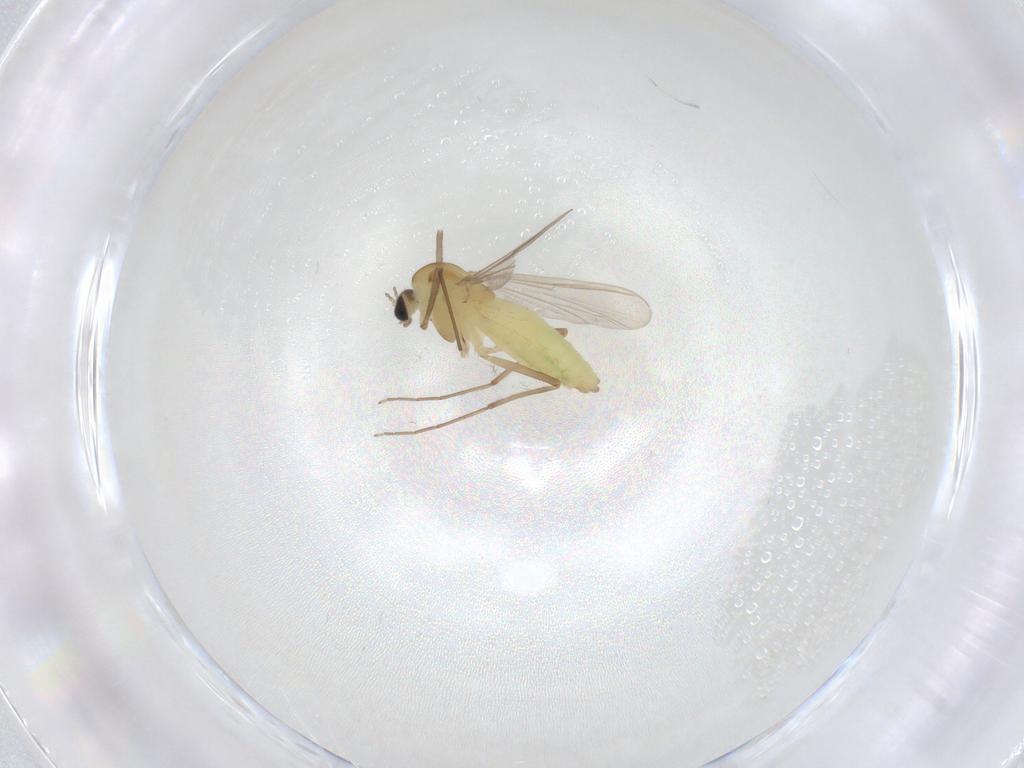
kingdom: Animalia
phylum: Arthropoda
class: Insecta
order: Diptera
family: Chironomidae
